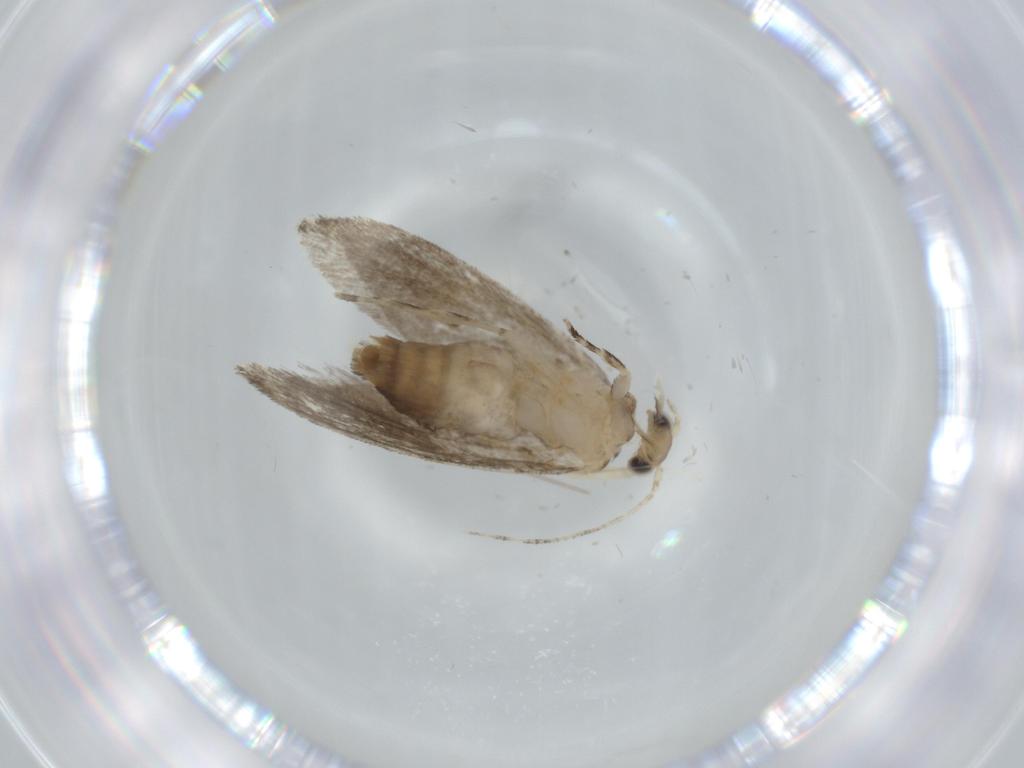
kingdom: Animalia
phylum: Arthropoda
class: Insecta
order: Lepidoptera
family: Tineidae
